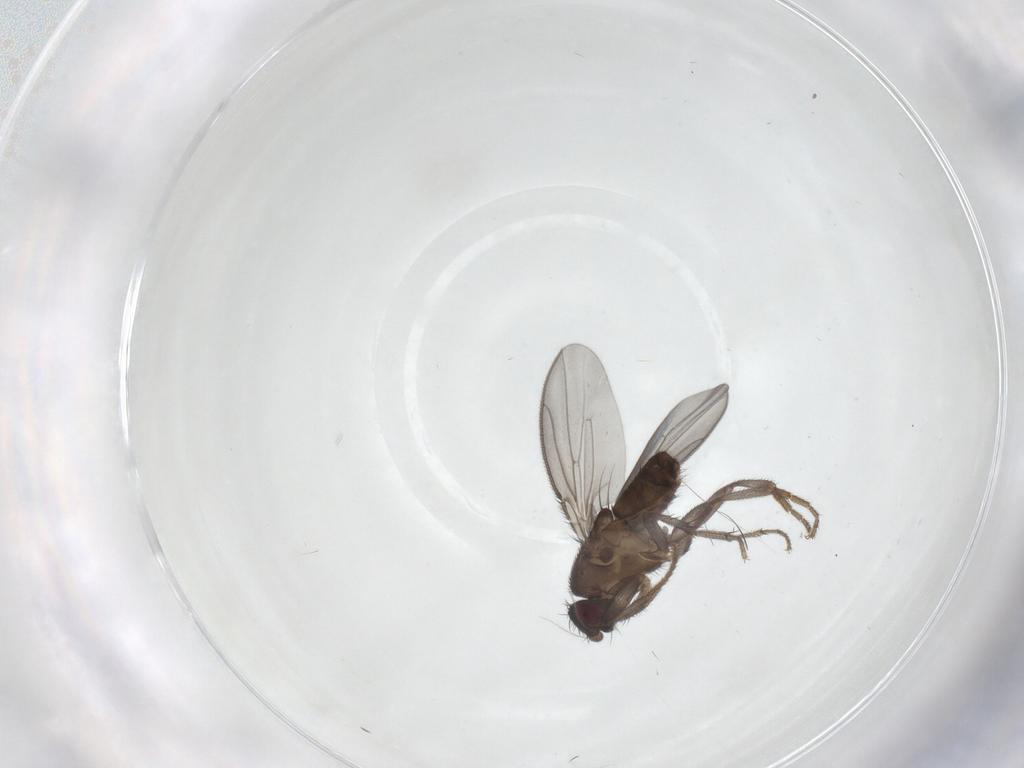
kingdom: Animalia
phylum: Arthropoda
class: Insecta
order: Diptera
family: Sphaeroceridae
